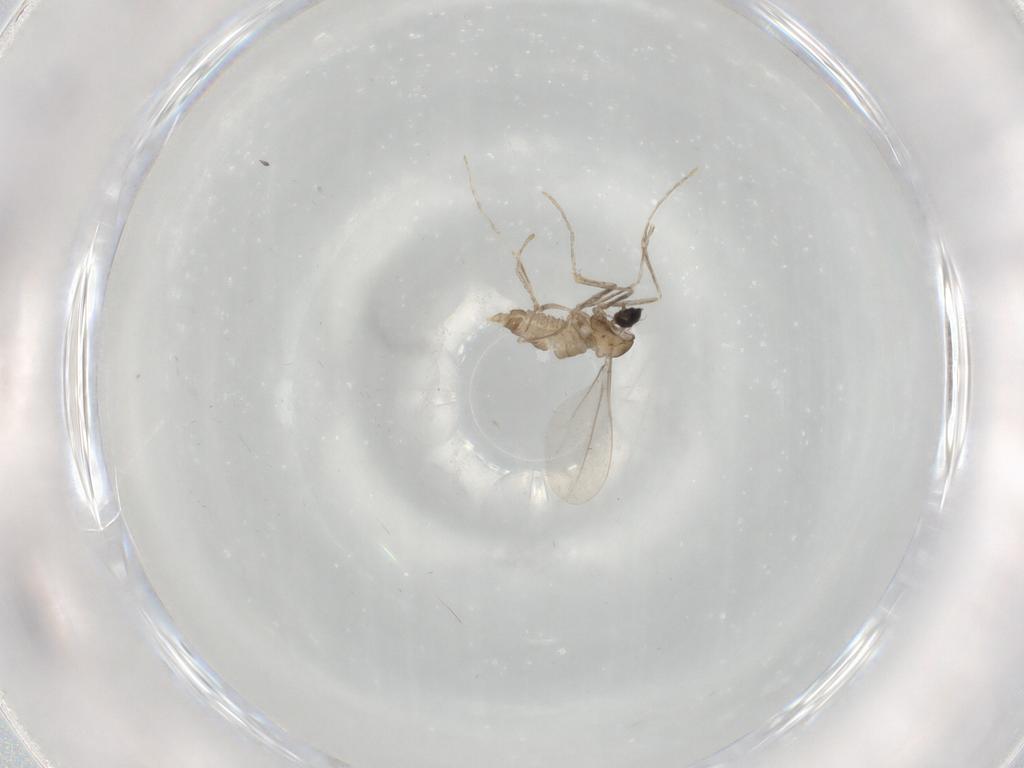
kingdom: Animalia
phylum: Arthropoda
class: Insecta
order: Diptera
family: Cecidomyiidae
